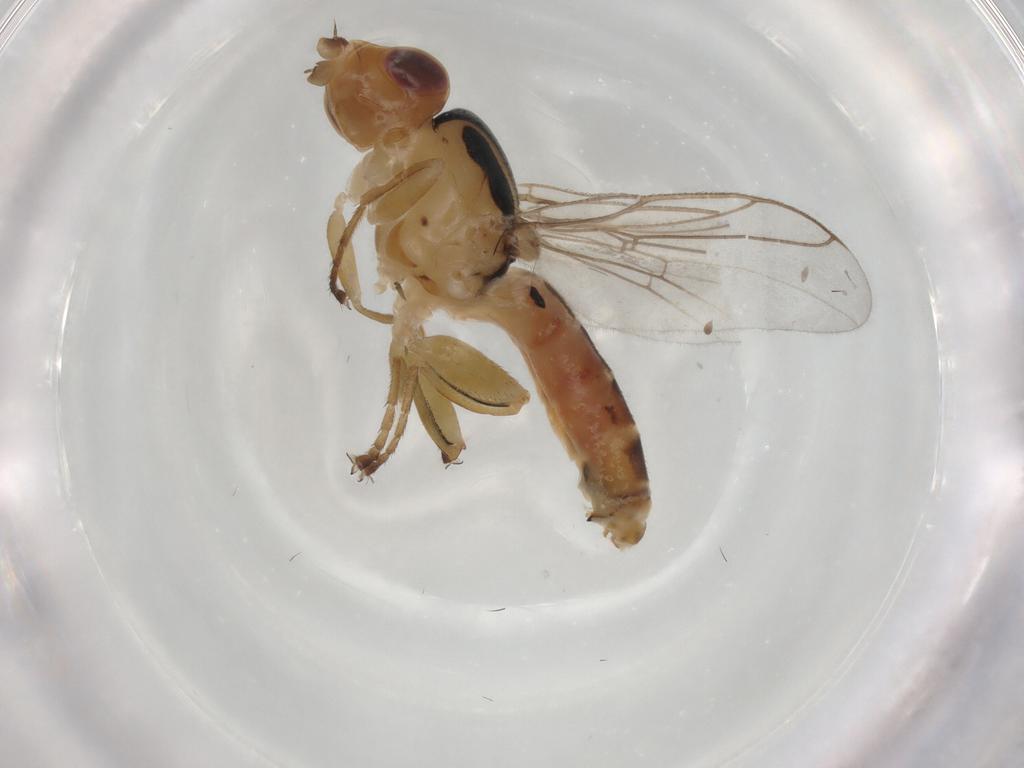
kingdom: Animalia
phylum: Arthropoda
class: Insecta
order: Diptera
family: Chloropidae
